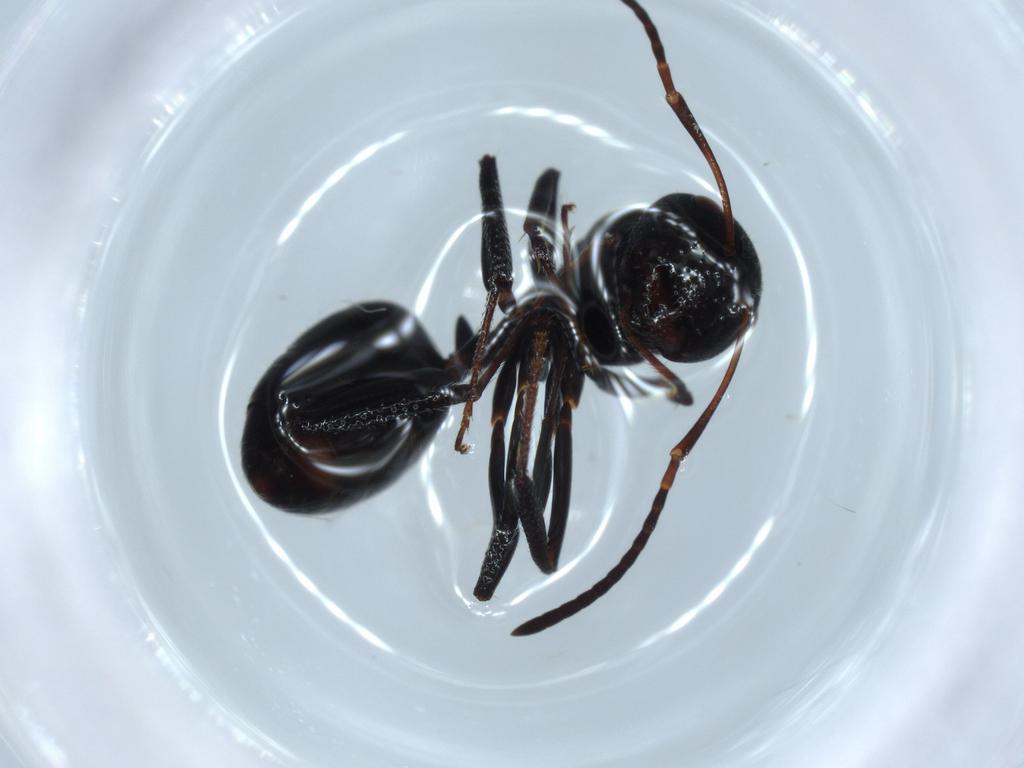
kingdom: Animalia
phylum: Arthropoda
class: Insecta
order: Hymenoptera
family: Formicidae
